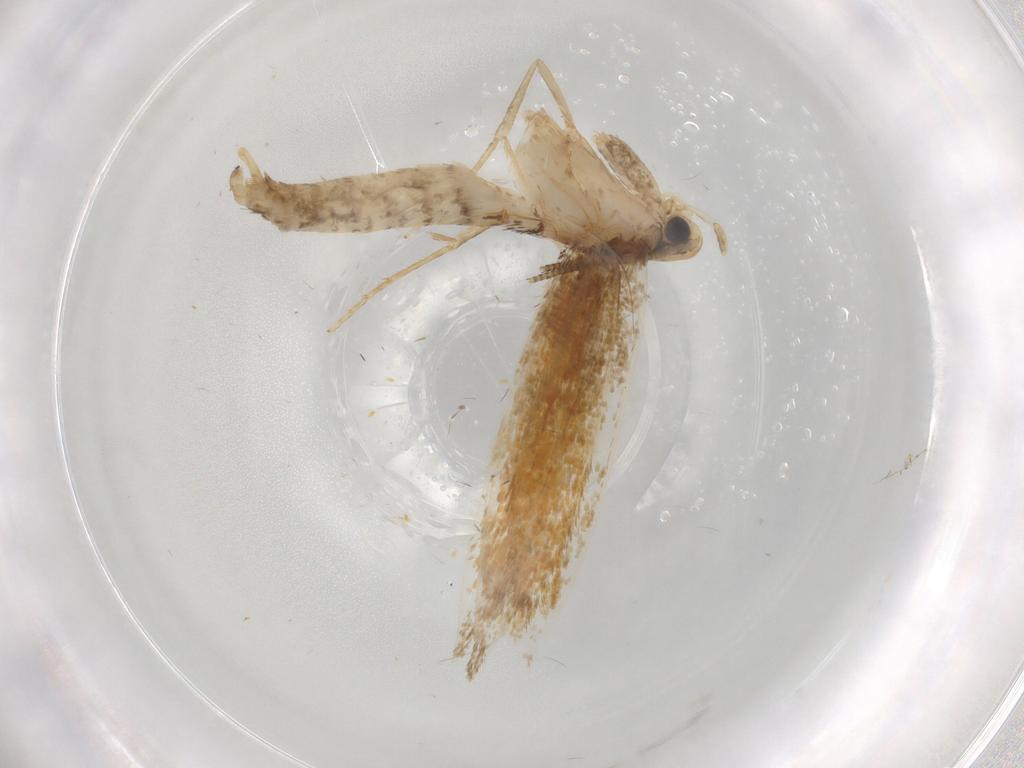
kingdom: Animalia
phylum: Arthropoda
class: Insecta
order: Lepidoptera
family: Tineidae
